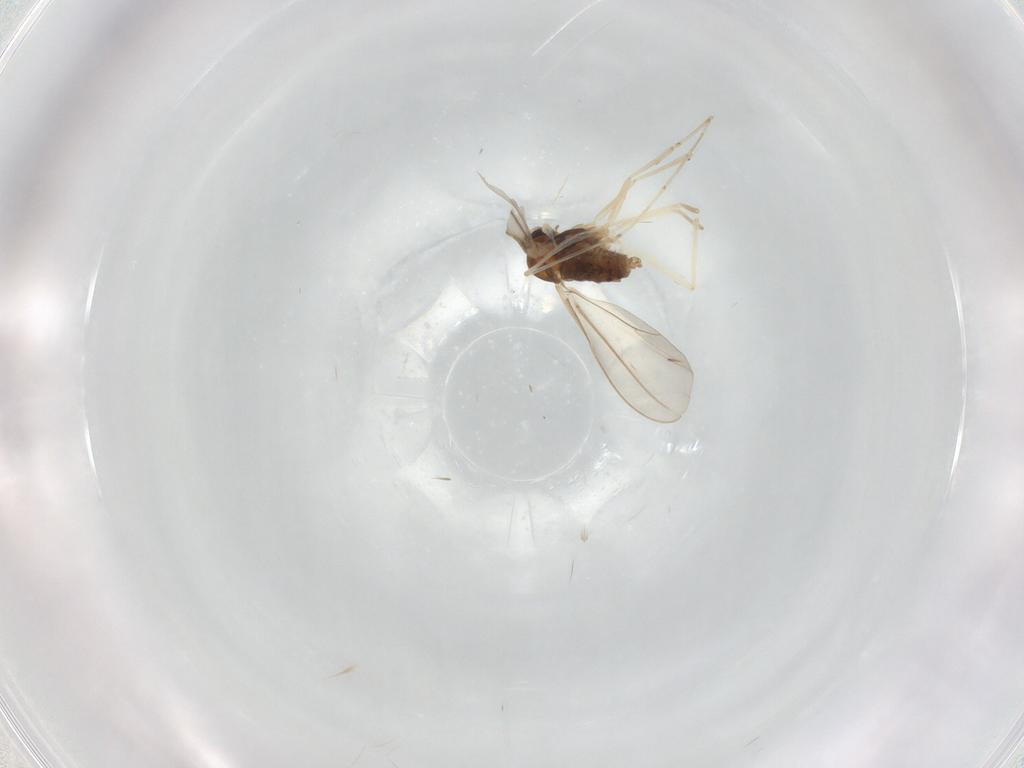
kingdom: Animalia
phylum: Arthropoda
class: Insecta
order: Diptera
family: Cecidomyiidae
